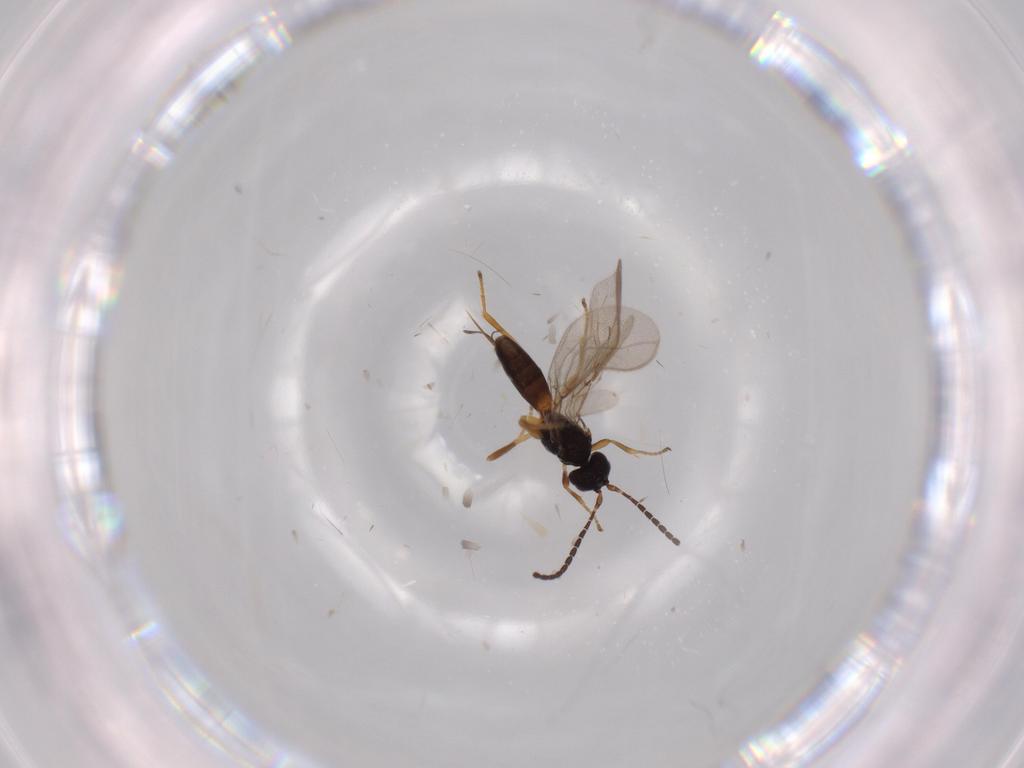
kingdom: Animalia
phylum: Arthropoda
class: Insecta
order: Hymenoptera
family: Braconidae
